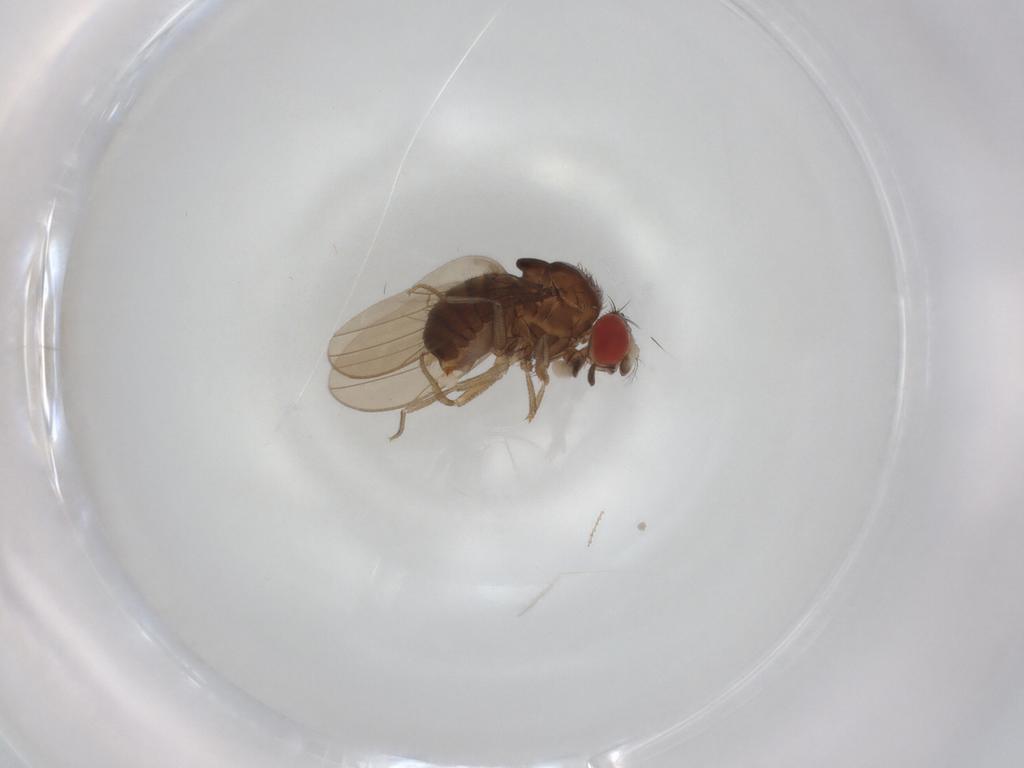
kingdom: Animalia
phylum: Arthropoda
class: Insecta
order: Diptera
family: Drosophilidae
